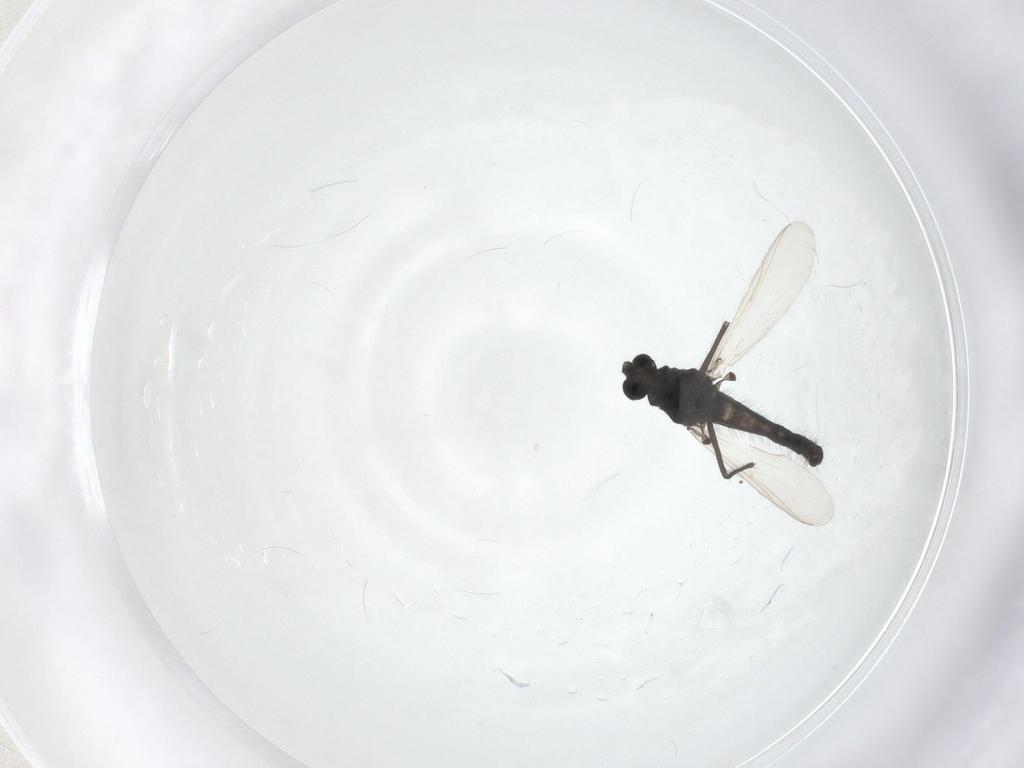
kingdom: Animalia
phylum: Arthropoda
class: Insecta
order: Diptera
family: Chironomidae
